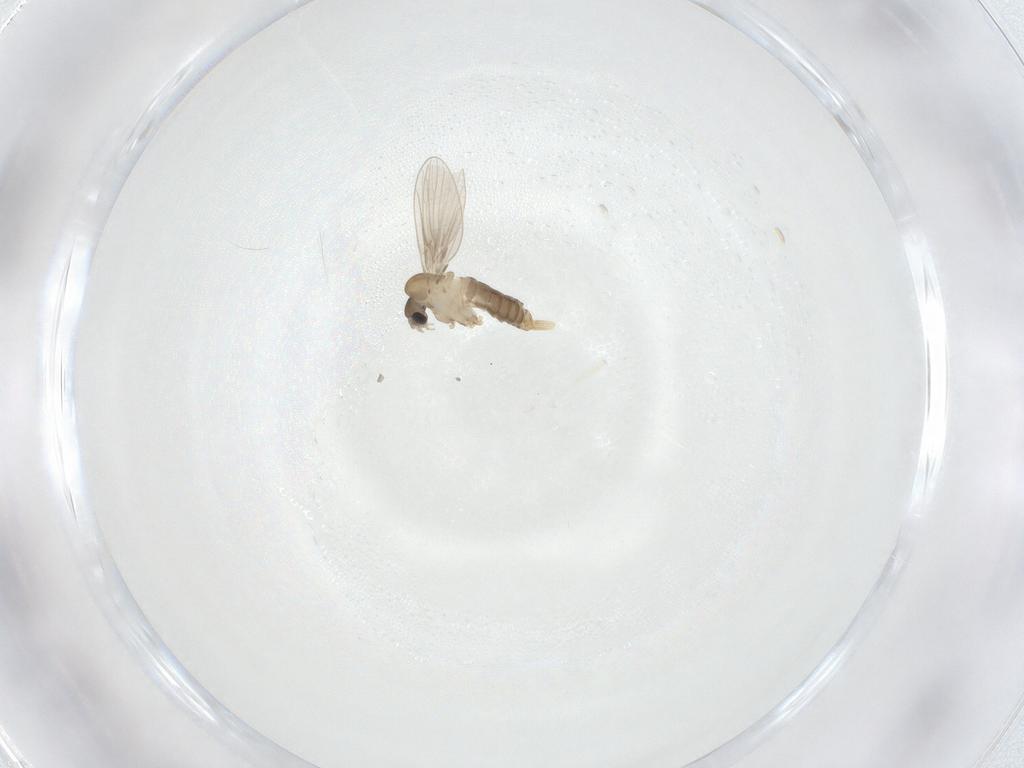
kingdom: Animalia
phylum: Arthropoda
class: Insecta
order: Diptera
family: Psychodidae
